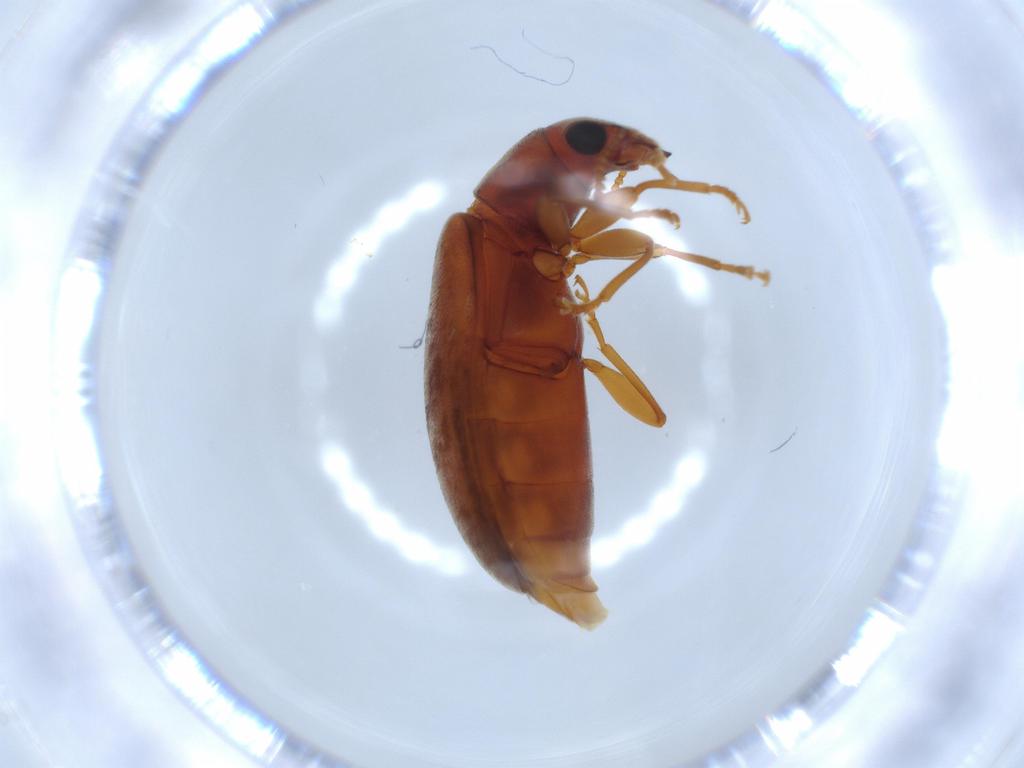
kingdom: Animalia
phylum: Arthropoda
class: Insecta
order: Coleoptera
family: Mycteridae
